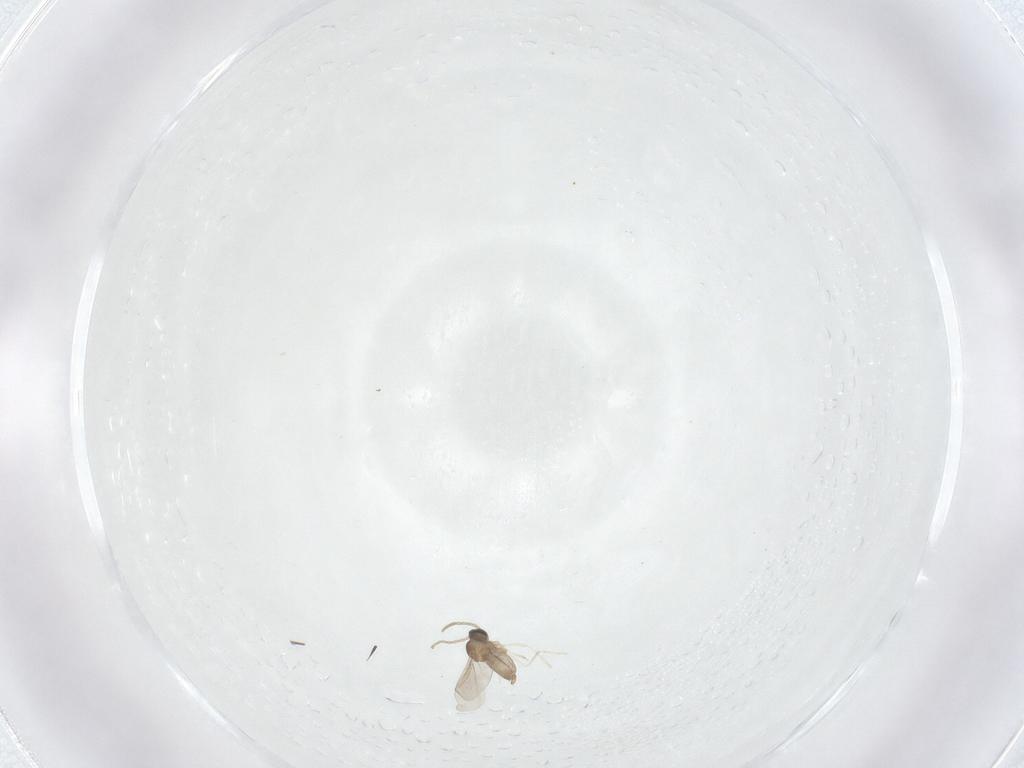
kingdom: Animalia
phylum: Arthropoda
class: Insecta
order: Diptera
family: Cecidomyiidae
